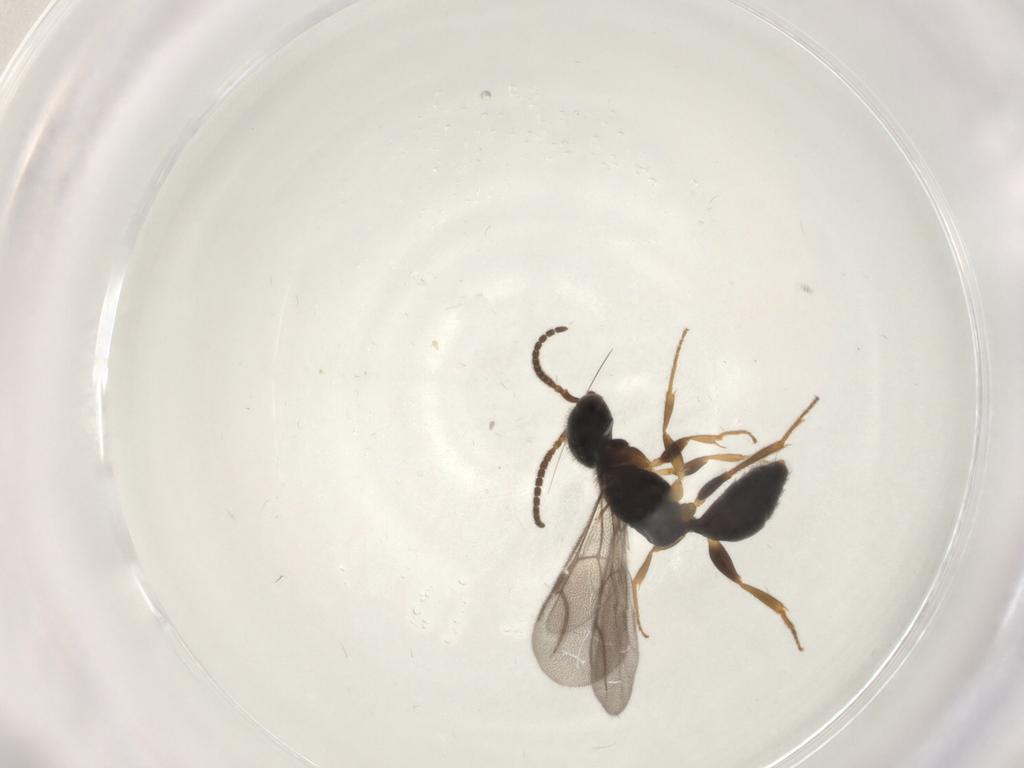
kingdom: Animalia
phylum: Arthropoda
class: Insecta
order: Hymenoptera
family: Bethylidae
